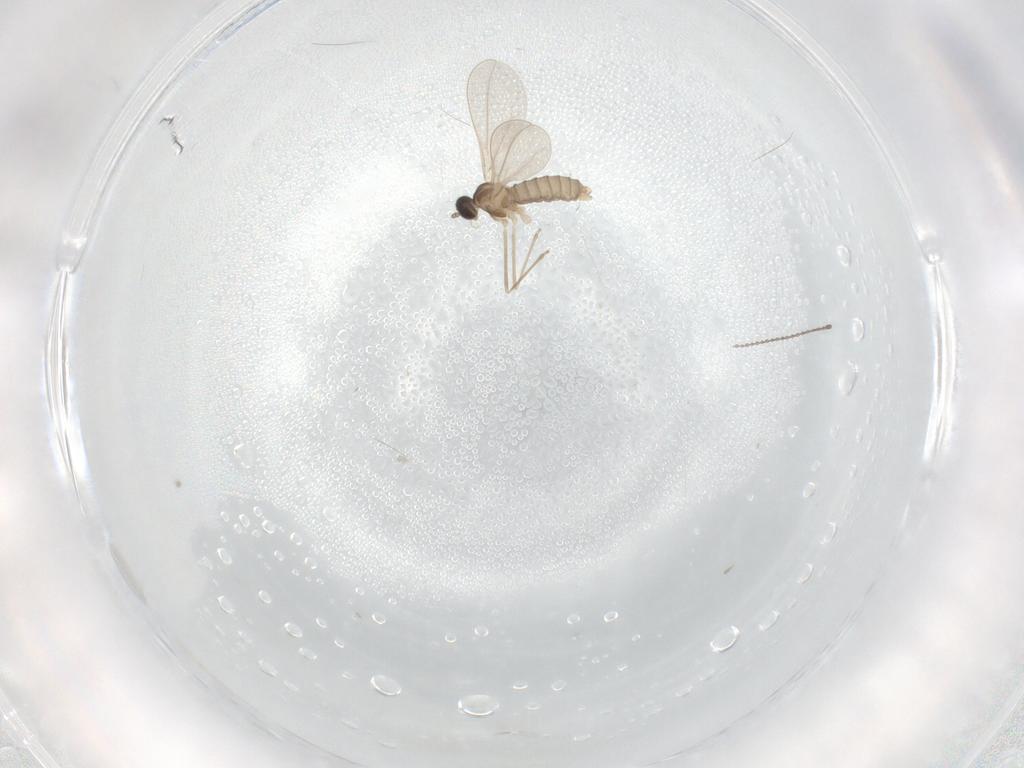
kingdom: Animalia
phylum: Arthropoda
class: Insecta
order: Diptera
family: Cecidomyiidae
